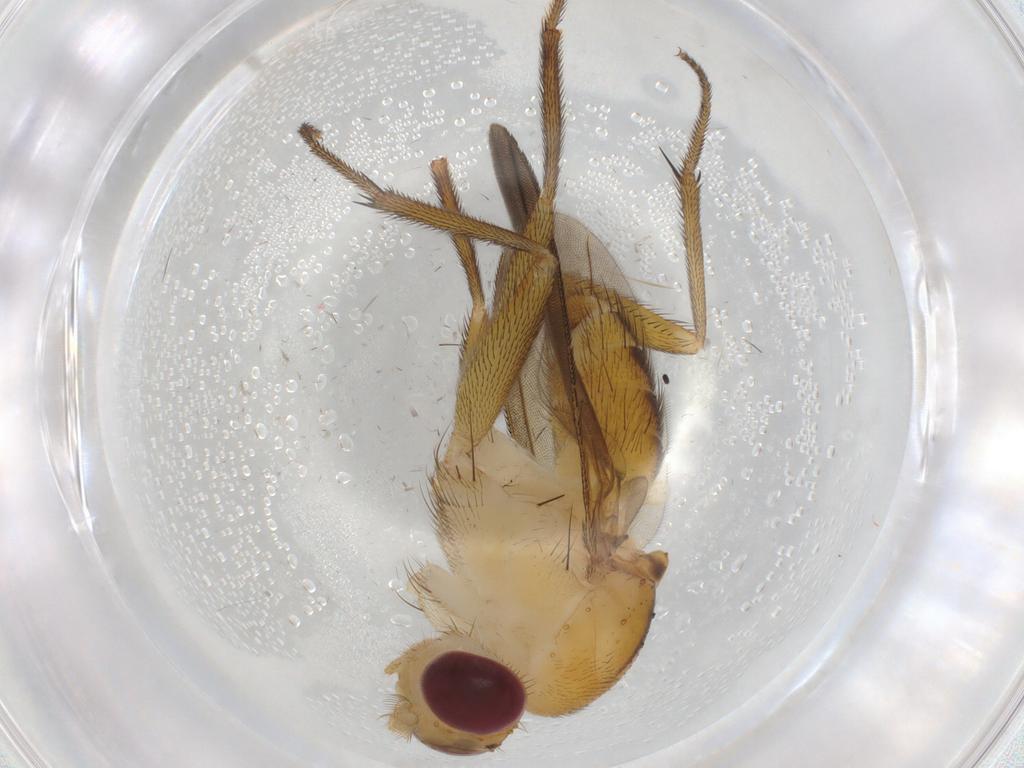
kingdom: Animalia
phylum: Arthropoda
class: Insecta
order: Diptera
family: Clusiidae
